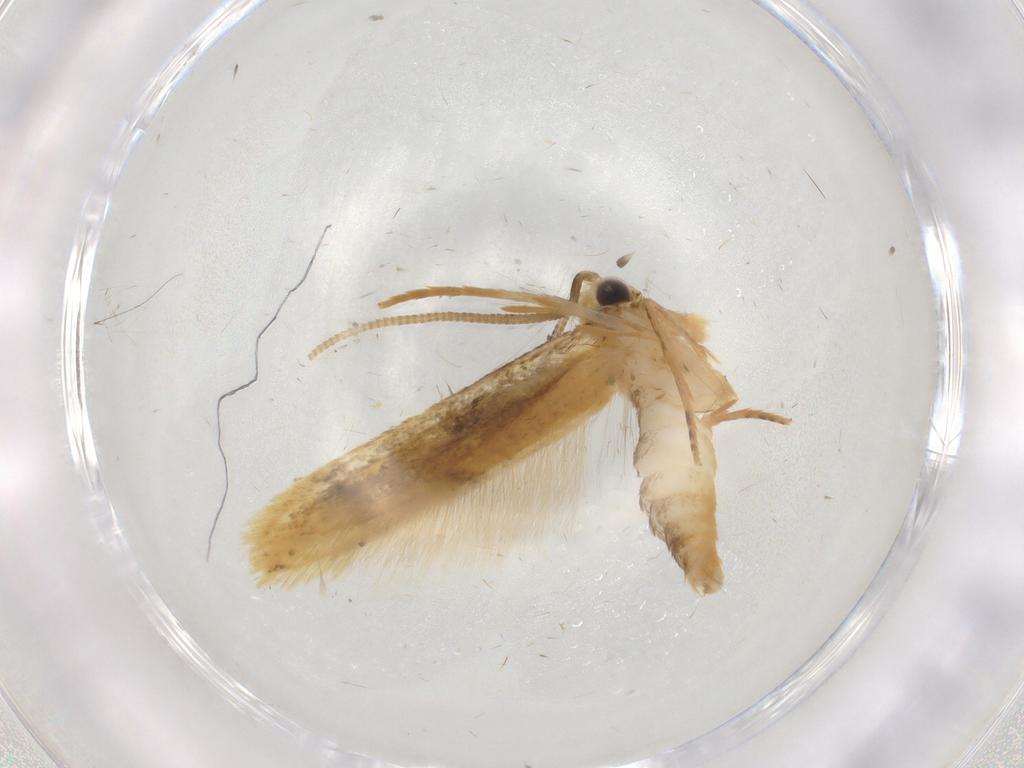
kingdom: Animalia
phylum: Arthropoda
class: Insecta
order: Lepidoptera
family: Tineidae
